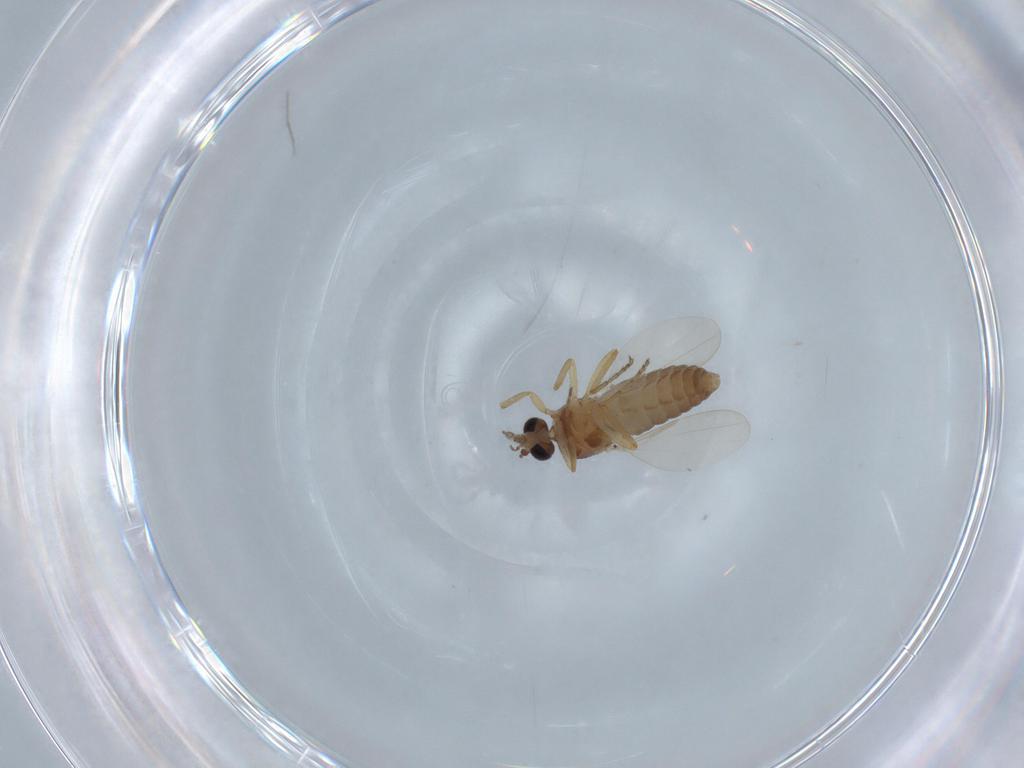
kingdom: Animalia
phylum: Arthropoda
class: Insecta
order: Diptera
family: Ceratopogonidae
